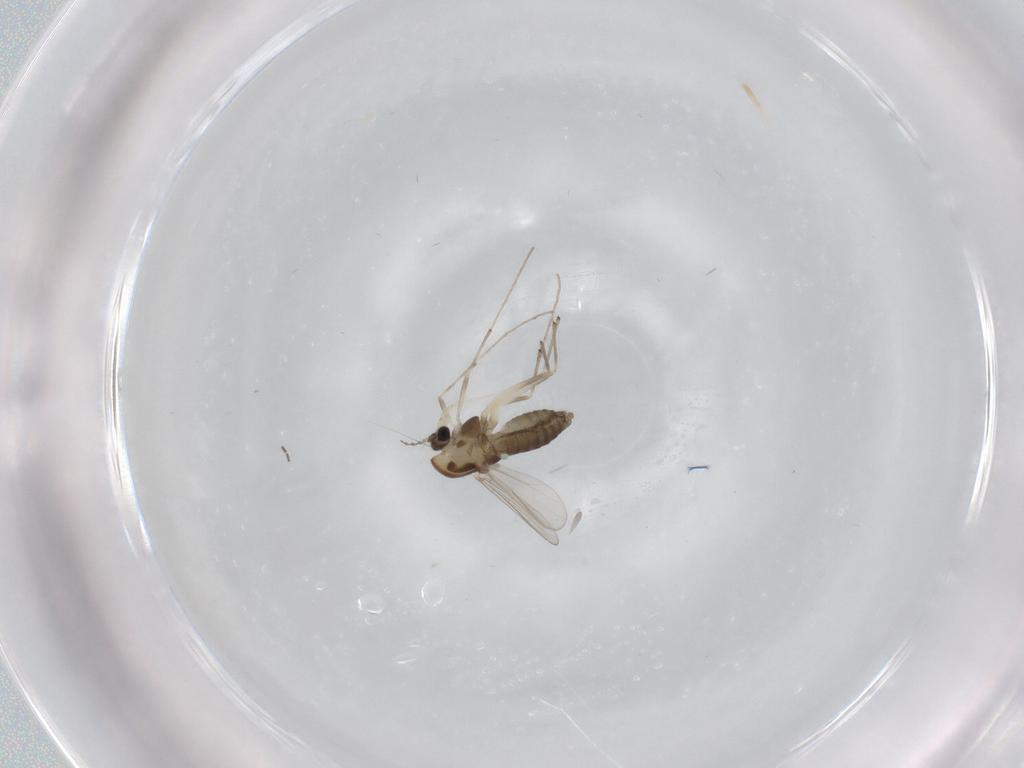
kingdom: Animalia
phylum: Arthropoda
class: Insecta
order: Diptera
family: Chironomidae
